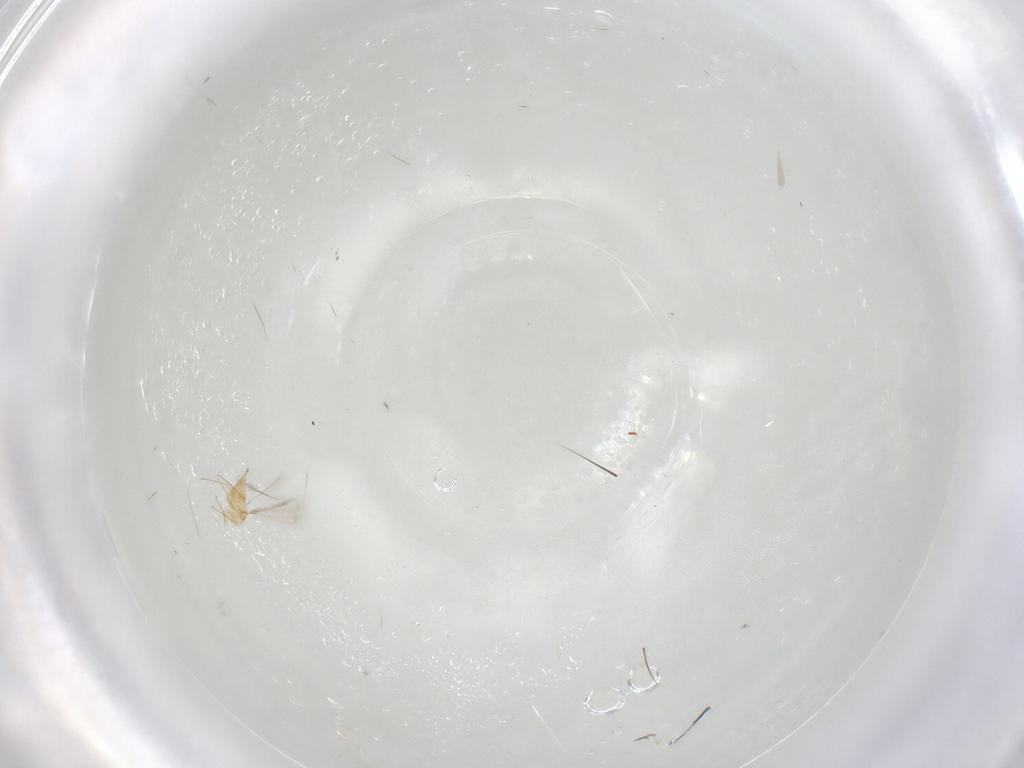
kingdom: Animalia
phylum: Arthropoda
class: Insecta
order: Hymenoptera
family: Mymaridae
